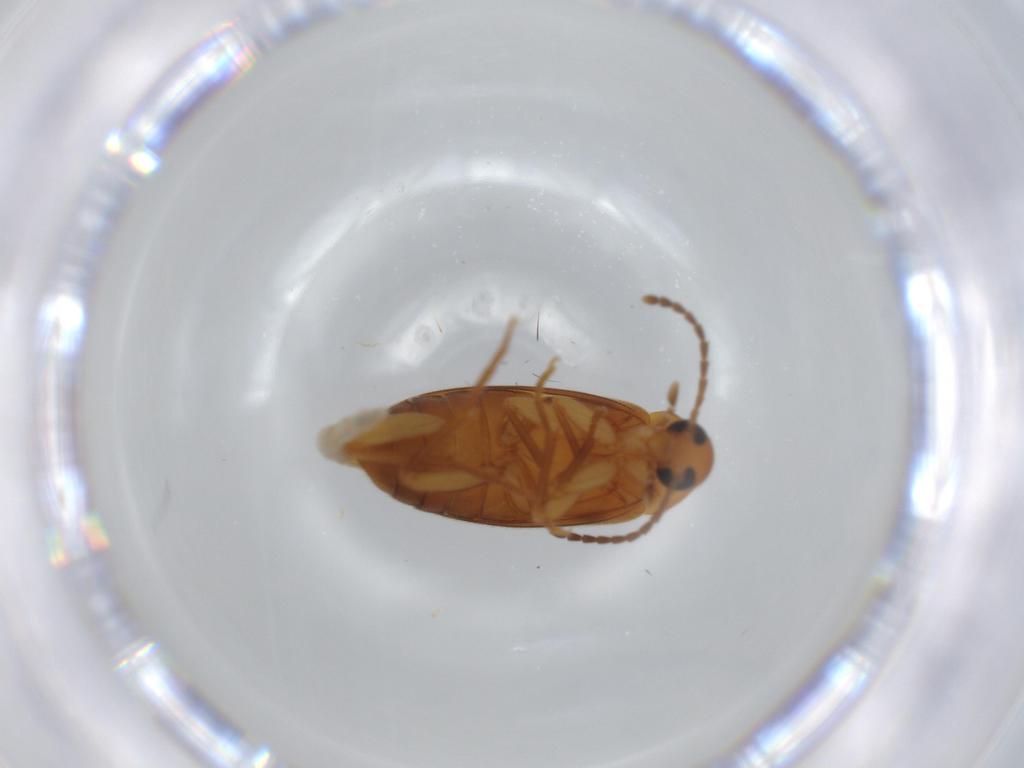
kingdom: Animalia
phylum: Arthropoda
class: Insecta
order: Coleoptera
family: Scraptiidae
